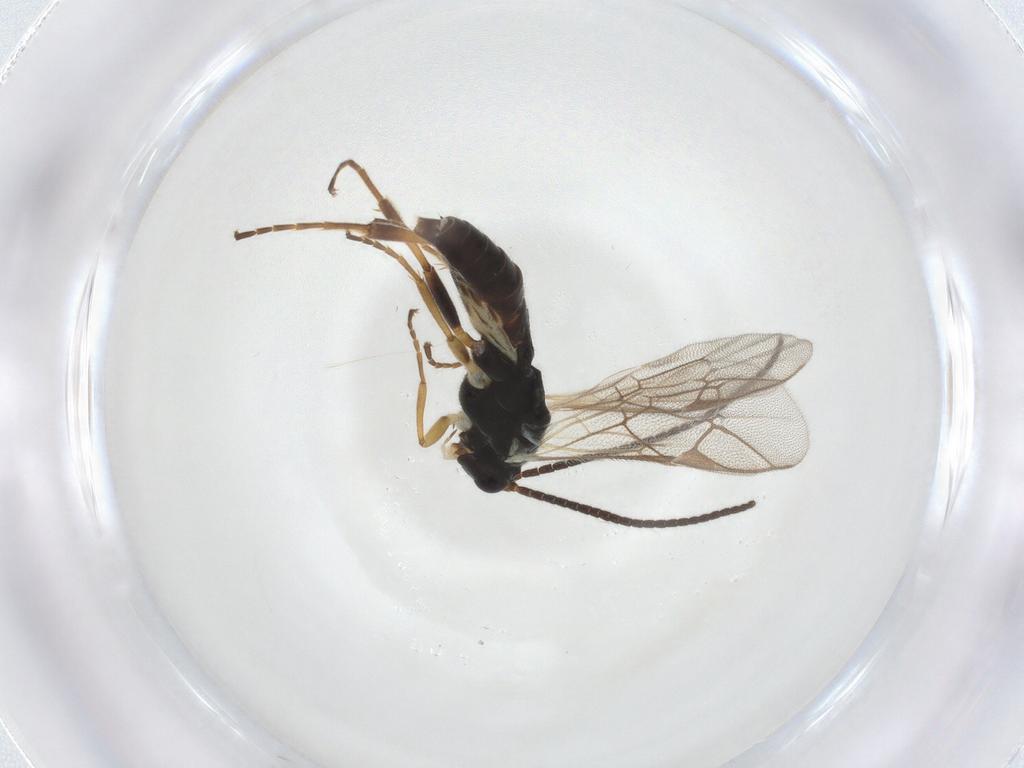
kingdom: Animalia
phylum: Arthropoda
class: Insecta
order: Hymenoptera
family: Ichneumonidae
